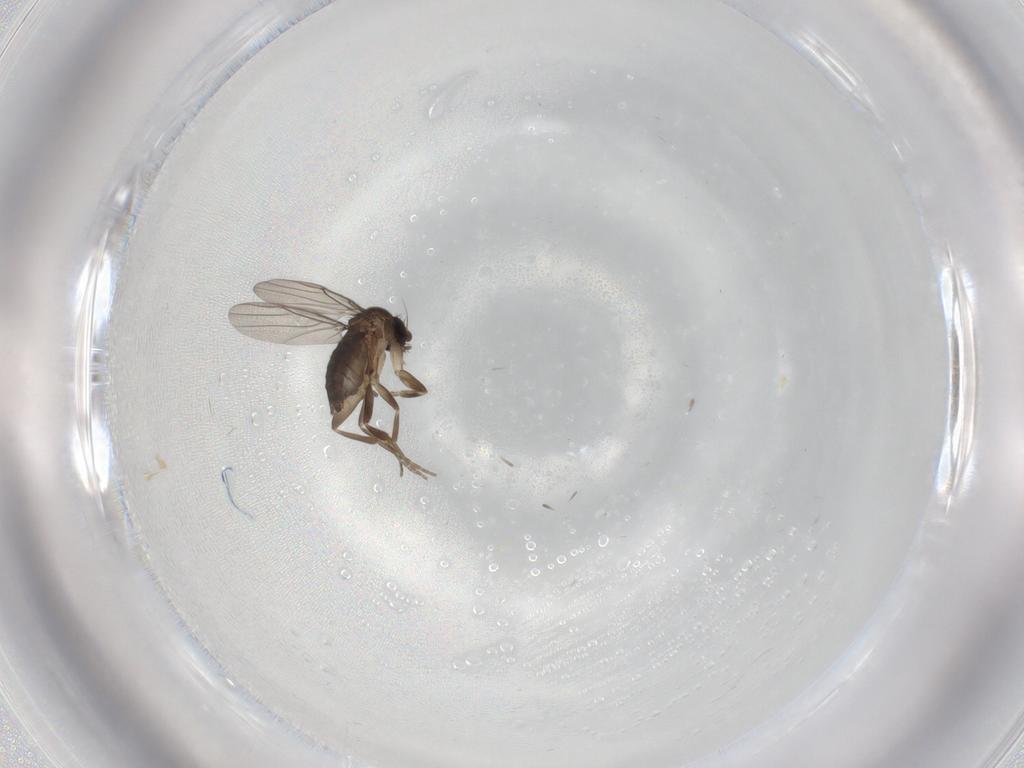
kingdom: Animalia
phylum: Arthropoda
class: Insecta
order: Diptera
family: Phoridae
